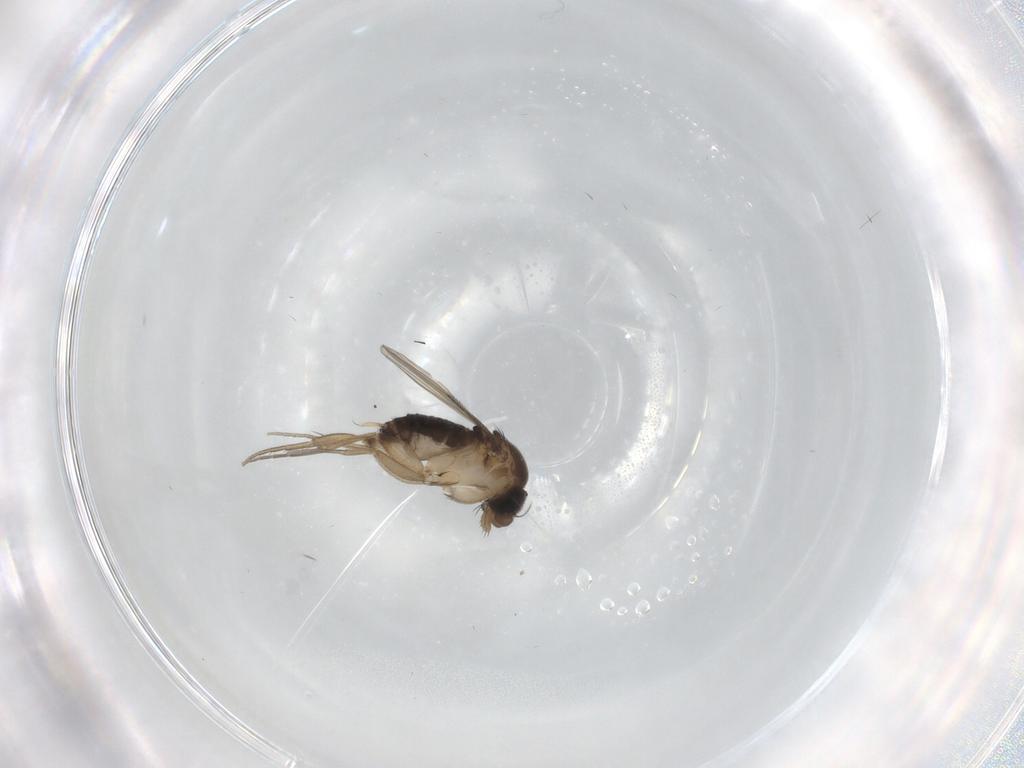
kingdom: Animalia
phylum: Arthropoda
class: Insecta
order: Diptera
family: Phoridae
